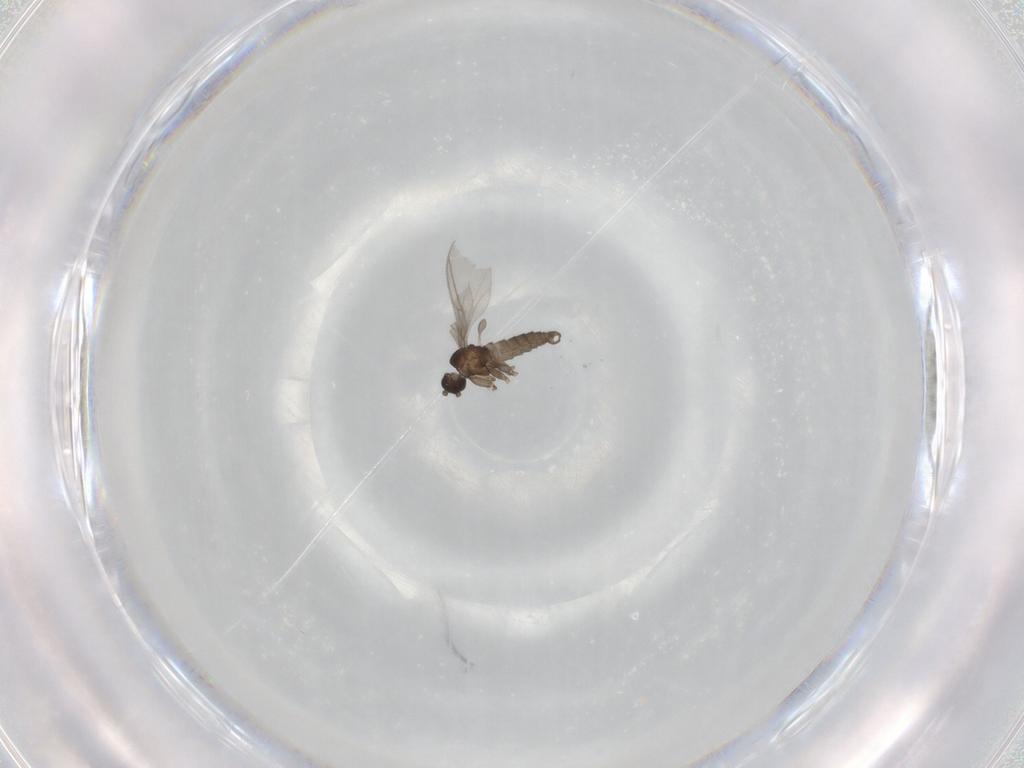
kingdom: Animalia
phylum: Arthropoda
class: Insecta
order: Diptera
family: Sciaridae
